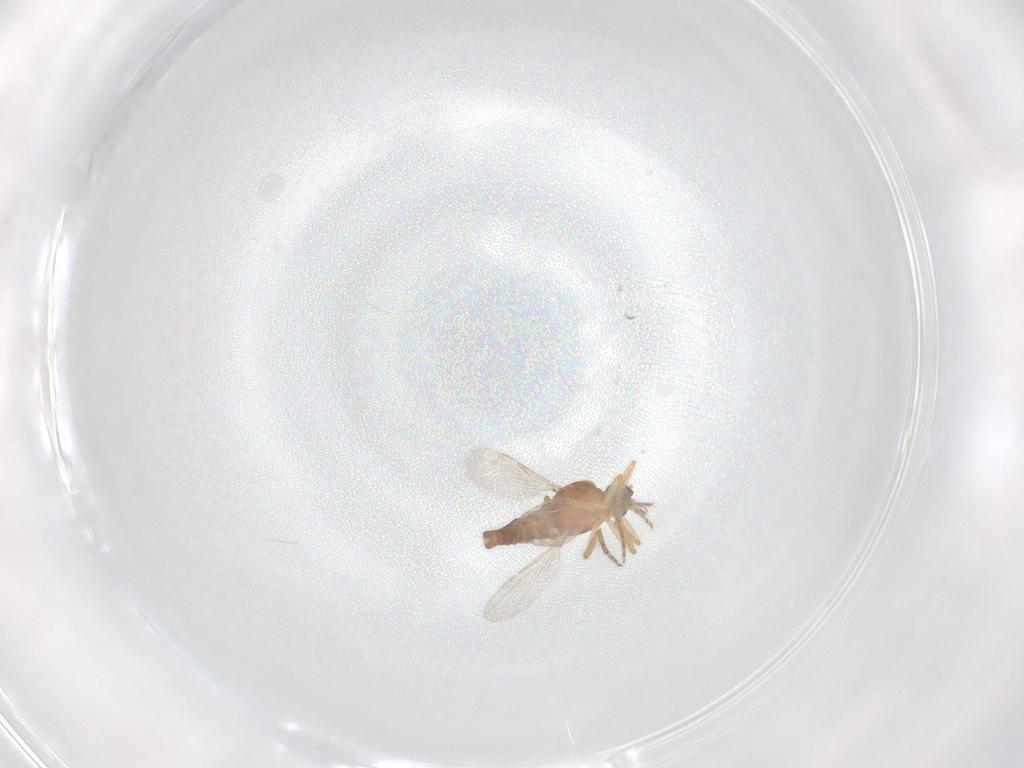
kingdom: Animalia
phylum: Arthropoda
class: Insecta
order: Diptera
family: Ceratopogonidae
